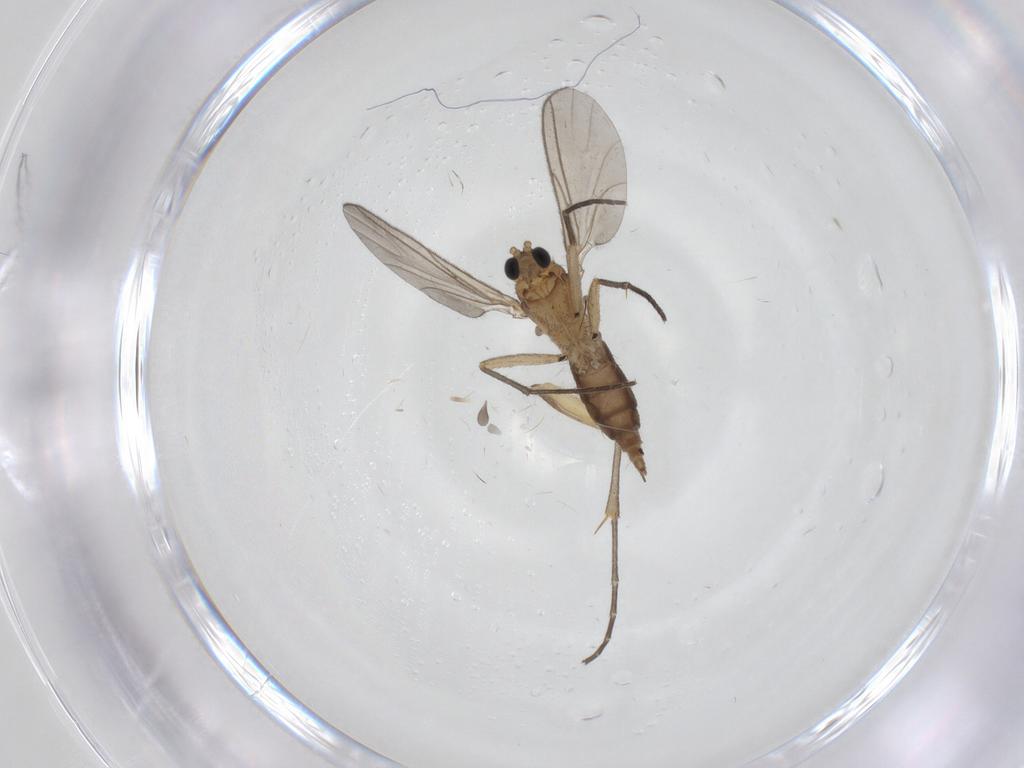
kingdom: Animalia
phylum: Arthropoda
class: Insecta
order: Diptera
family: Sciaridae
